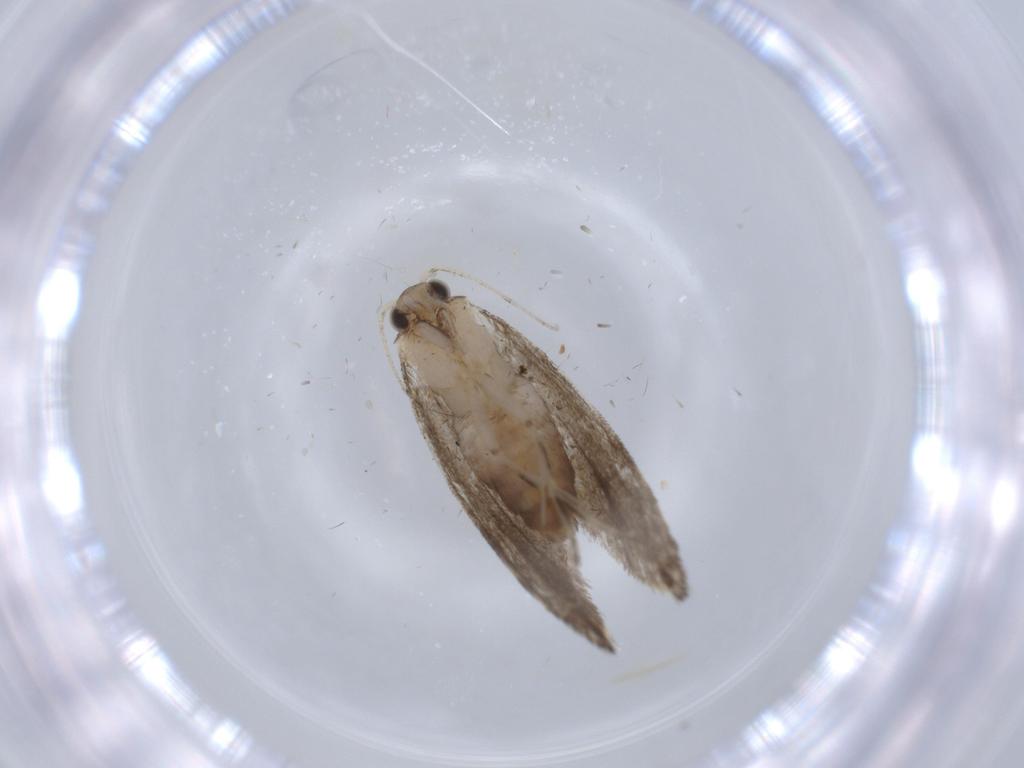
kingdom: Animalia
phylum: Arthropoda
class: Insecta
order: Lepidoptera
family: Tineidae
